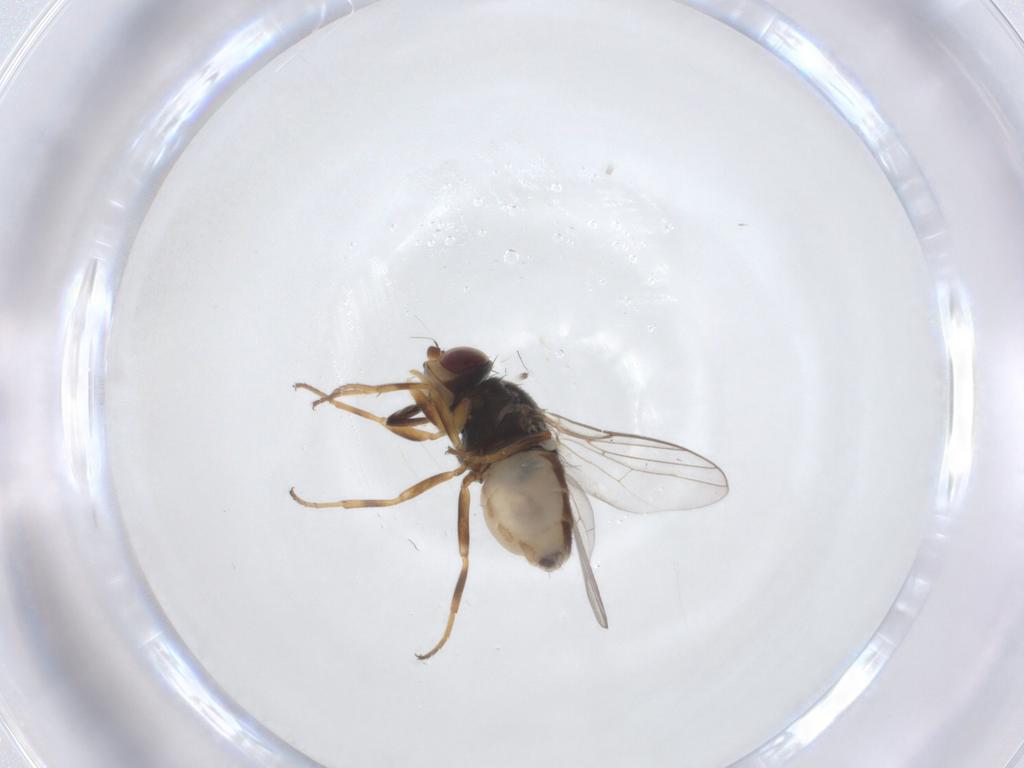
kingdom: Animalia
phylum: Arthropoda
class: Insecta
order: Diptera
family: Chloropidae
